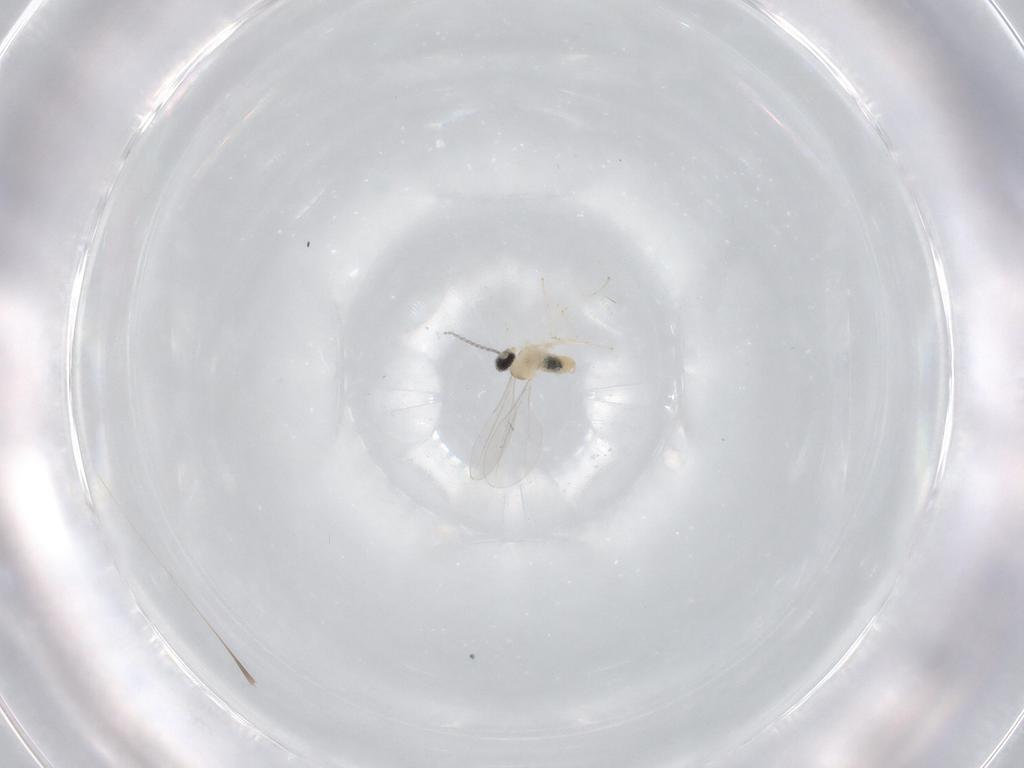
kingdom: Animalia
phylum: Arthropoda
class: Insecta
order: Diptera
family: Cecidomyiidae
